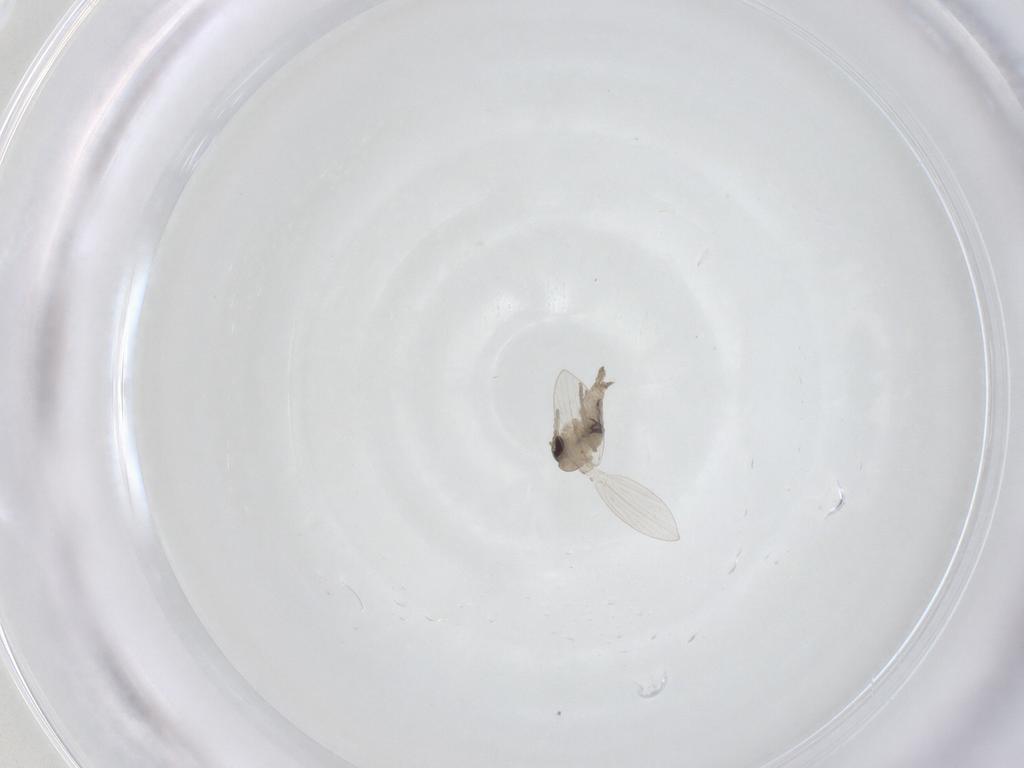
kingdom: Animalia
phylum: Arthropoda
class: Insecta
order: Diptera
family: Psychodidae
